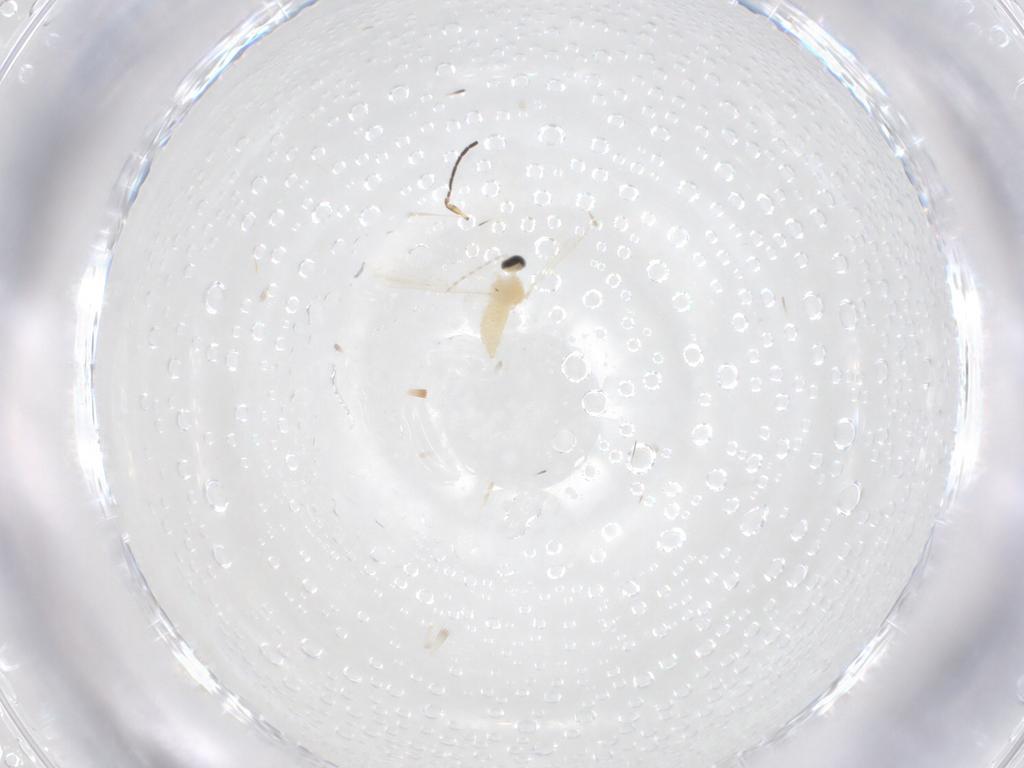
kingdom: Animalia
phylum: Arthropoda
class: Insecta
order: Diptera
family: Cecidomyiidae
